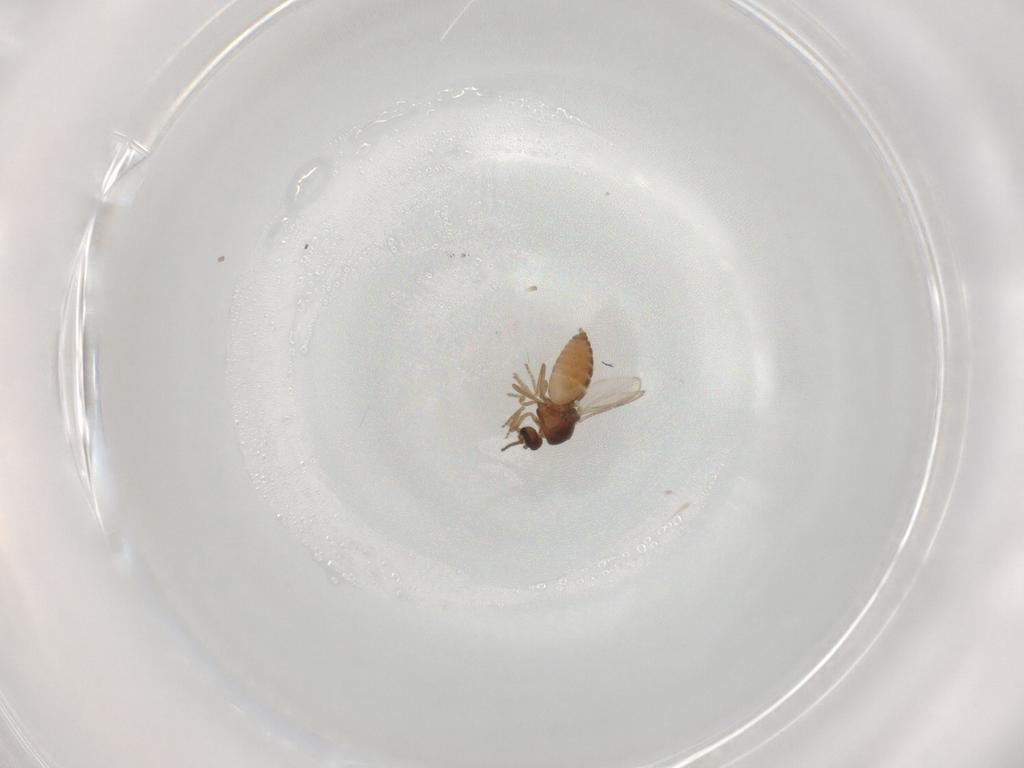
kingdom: Animalia
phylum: Arthropoda
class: Insecta
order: Diptera
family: Ceratopogonidae
